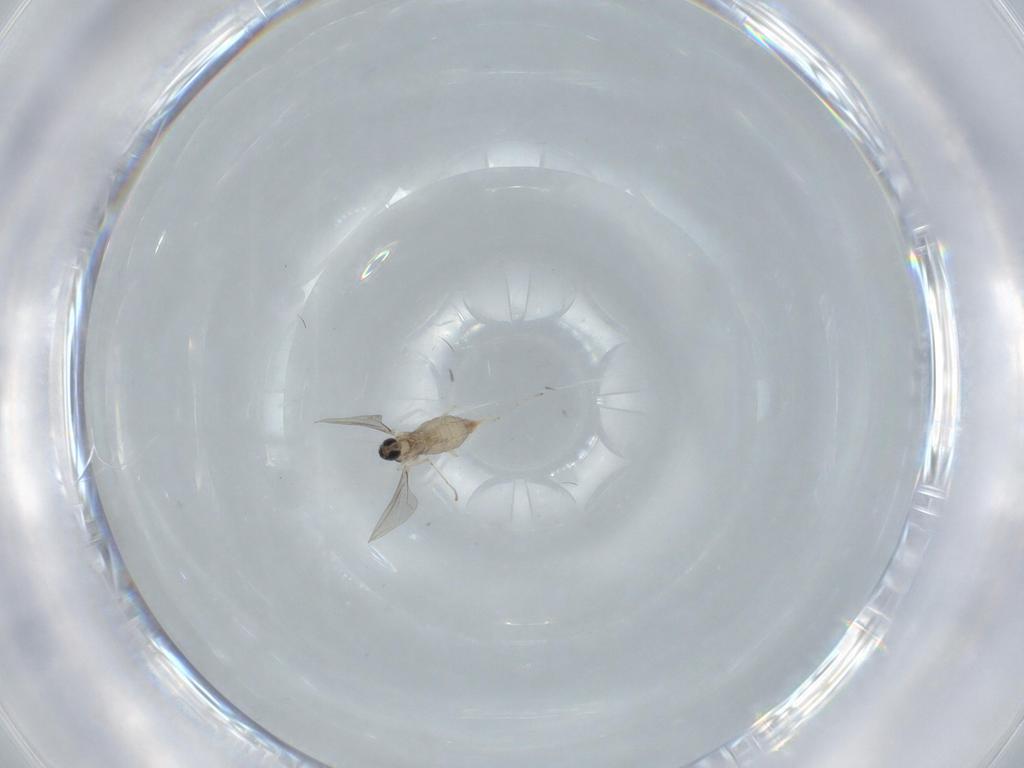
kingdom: Animalia
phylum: Arthropoda
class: Insecta
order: Diptera
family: Cecidomyiidae
